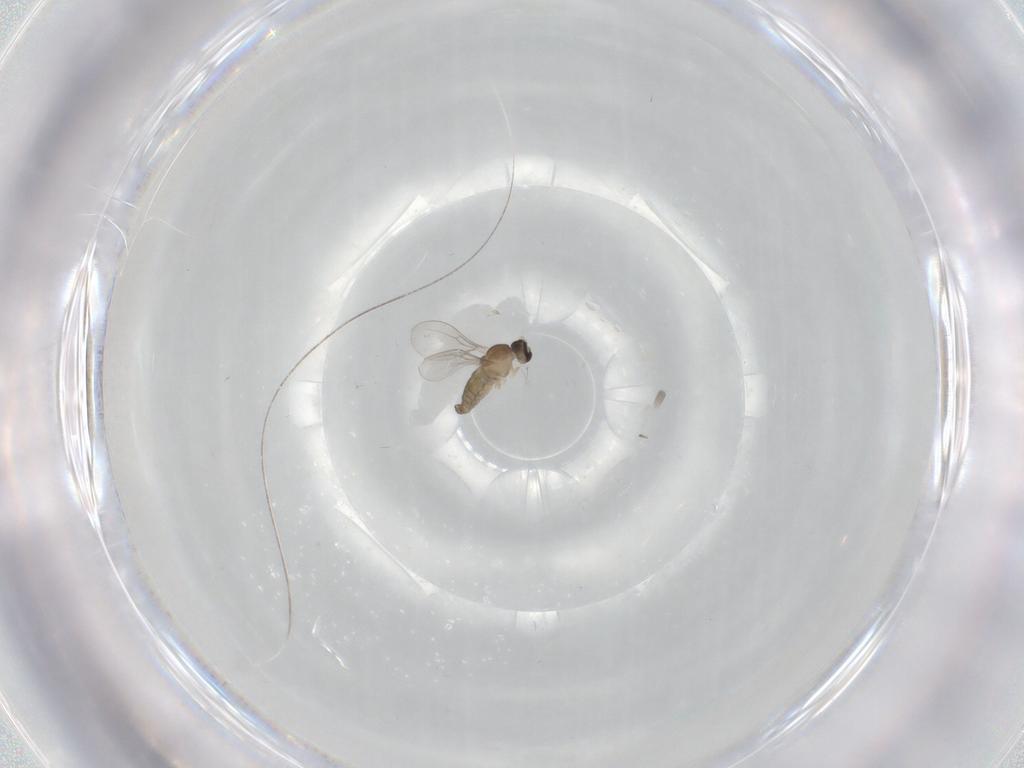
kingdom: Animalia
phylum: Arthropoda
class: Insecta
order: Diptera
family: Cecidomyiidae
